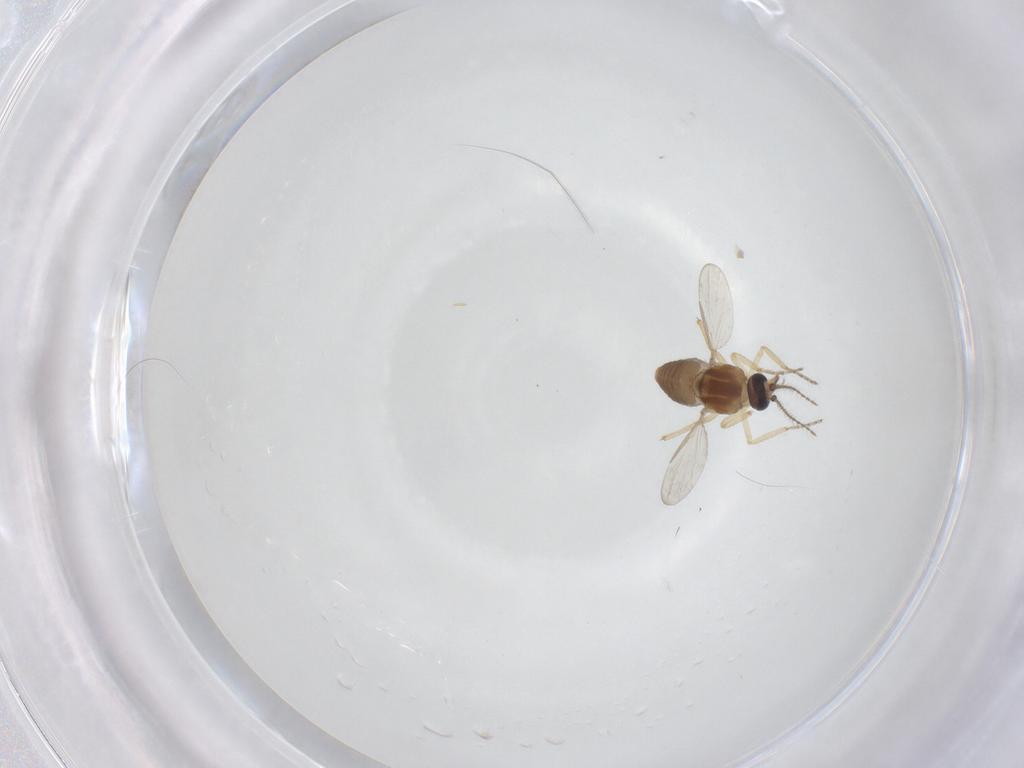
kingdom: Animalia
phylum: Arthropoda
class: Insecta
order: Diptera
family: Ceratopogonidae
